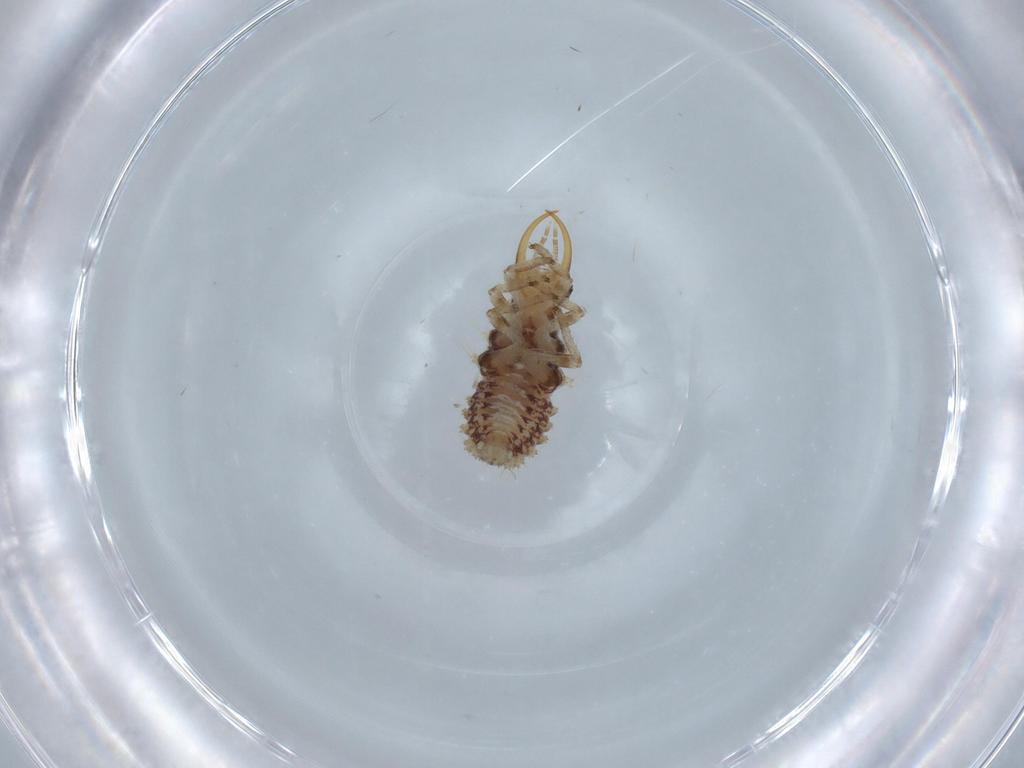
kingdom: Animalia
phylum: Arthropoda
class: Insecta
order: Neuroptera
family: Chrysopidae
